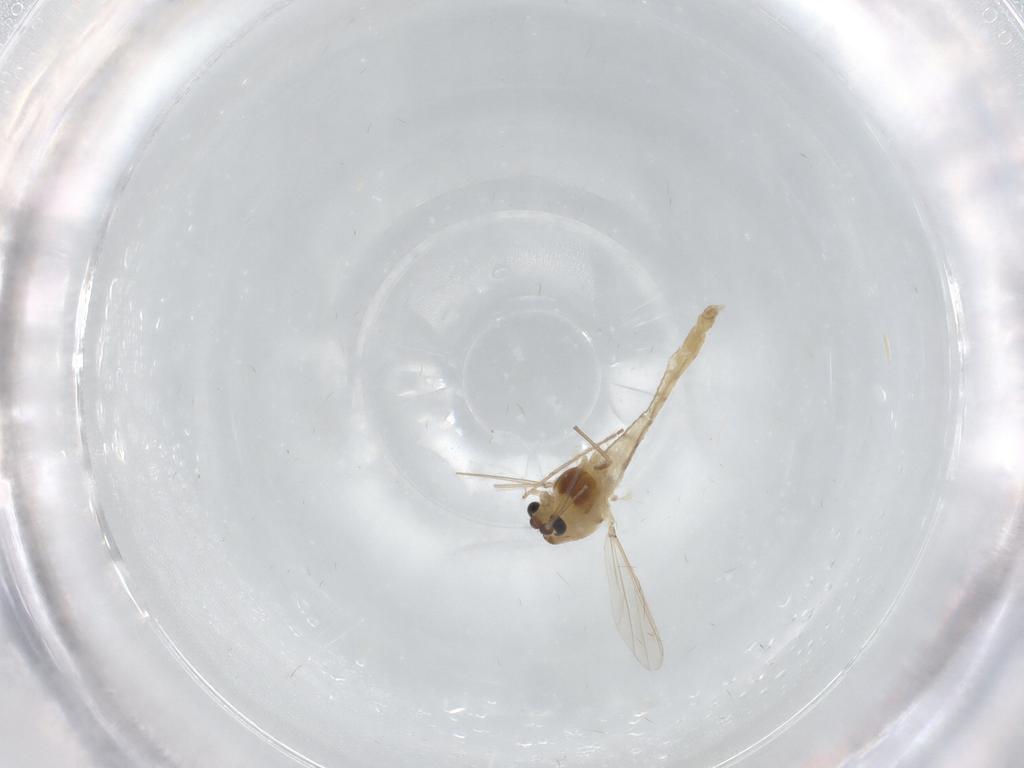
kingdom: Animalia
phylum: Arthropoda
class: Insecta
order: Diptera
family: Chironomidae
